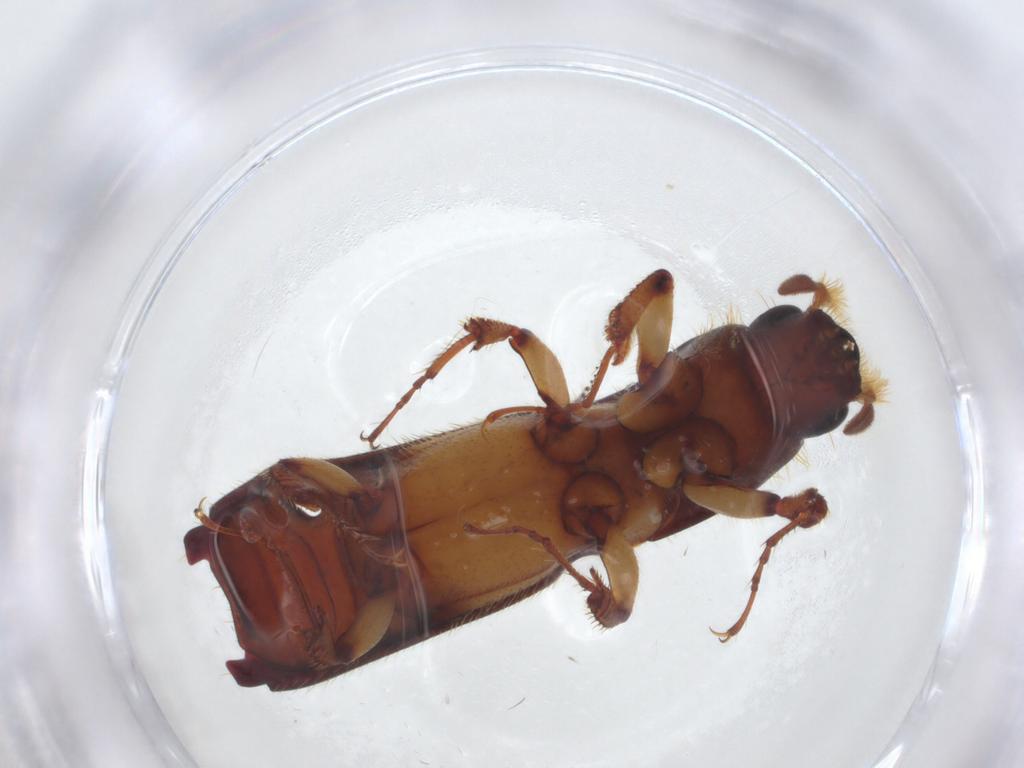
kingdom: Animalia
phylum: Arthropoda
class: Insecta
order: Coleoptera
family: Curculionidae
